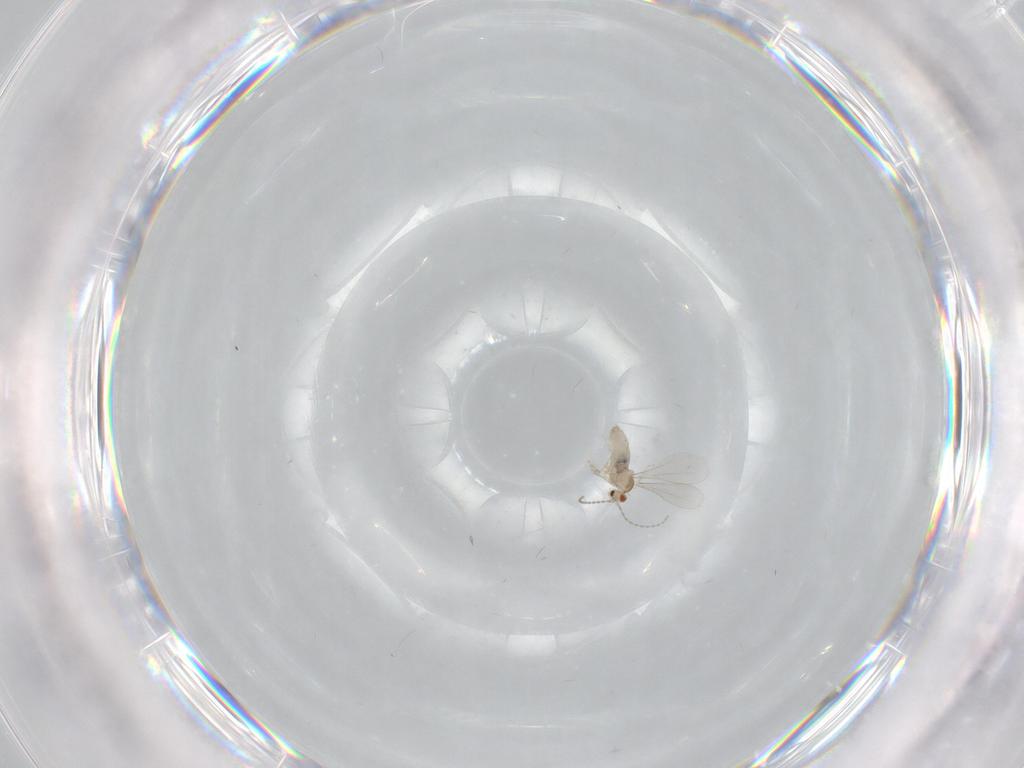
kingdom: Animalia
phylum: Arthropoda
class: Insecta
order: Diptera
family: Cecidomyiidae
